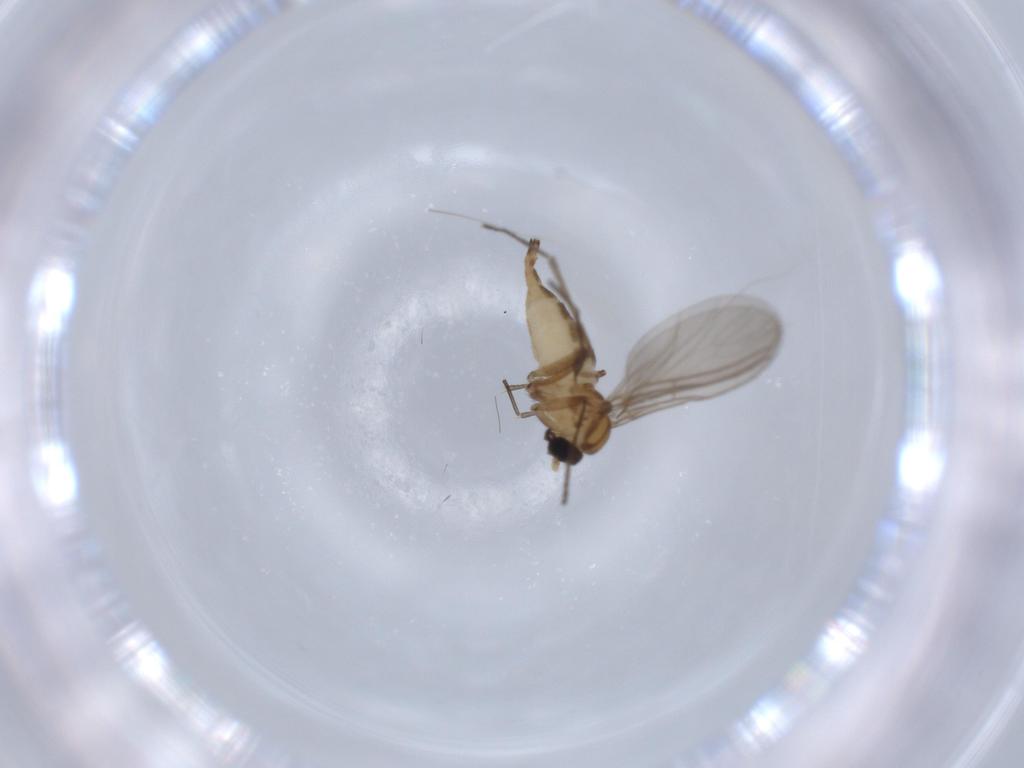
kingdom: Animalia
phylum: Arthropoda
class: Insecta
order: Diptera
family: Sciaridae
